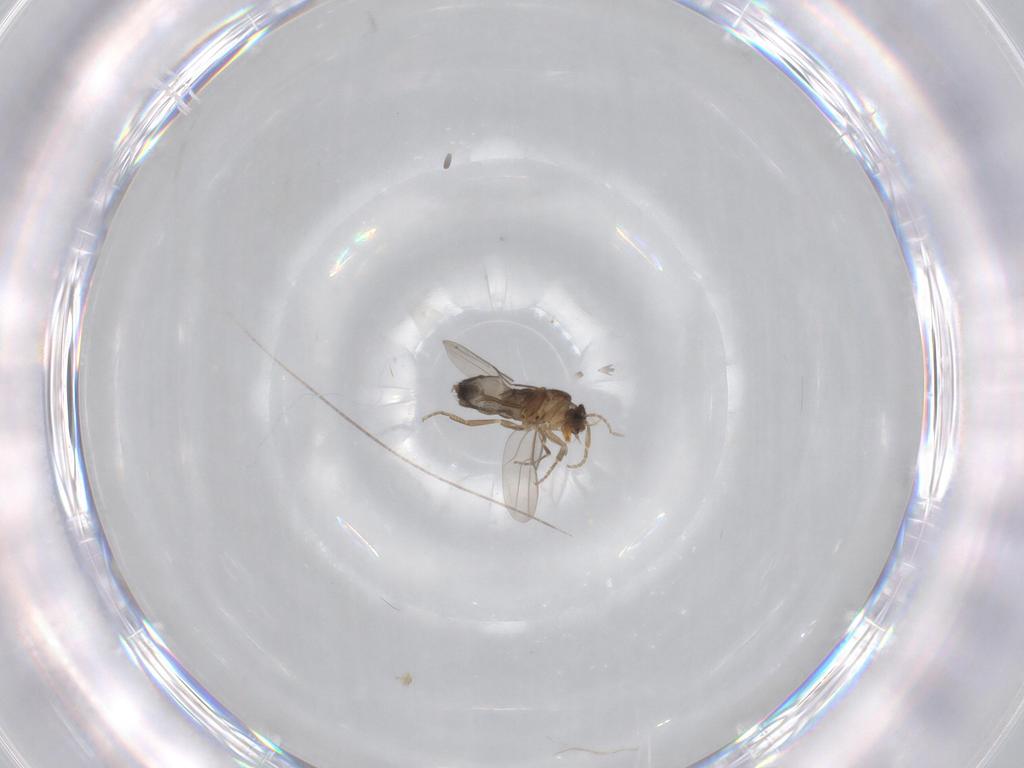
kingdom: Animalia
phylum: Arthropoda
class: Insecta
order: Diptera
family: Phoridae
